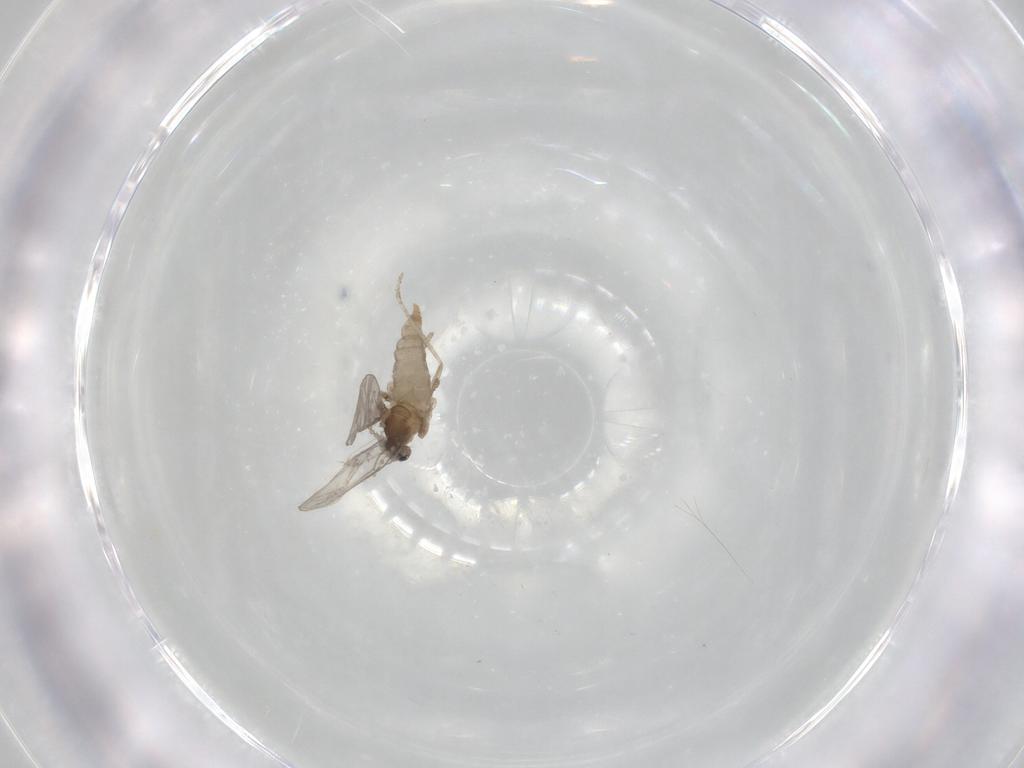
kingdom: Animalia
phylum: Arthropoda
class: Insecta
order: Diptera
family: Cecidomyiidae
